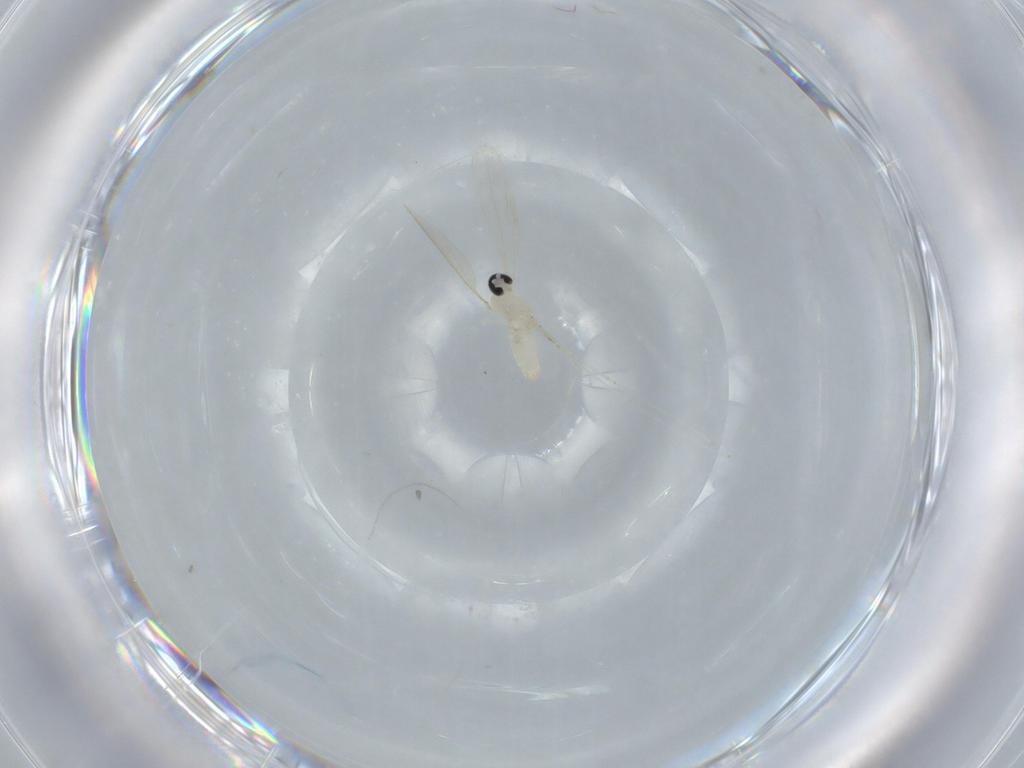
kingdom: Animalia
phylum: Arthropoda
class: Insecta
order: Diptera
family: Cecidomyiidae
